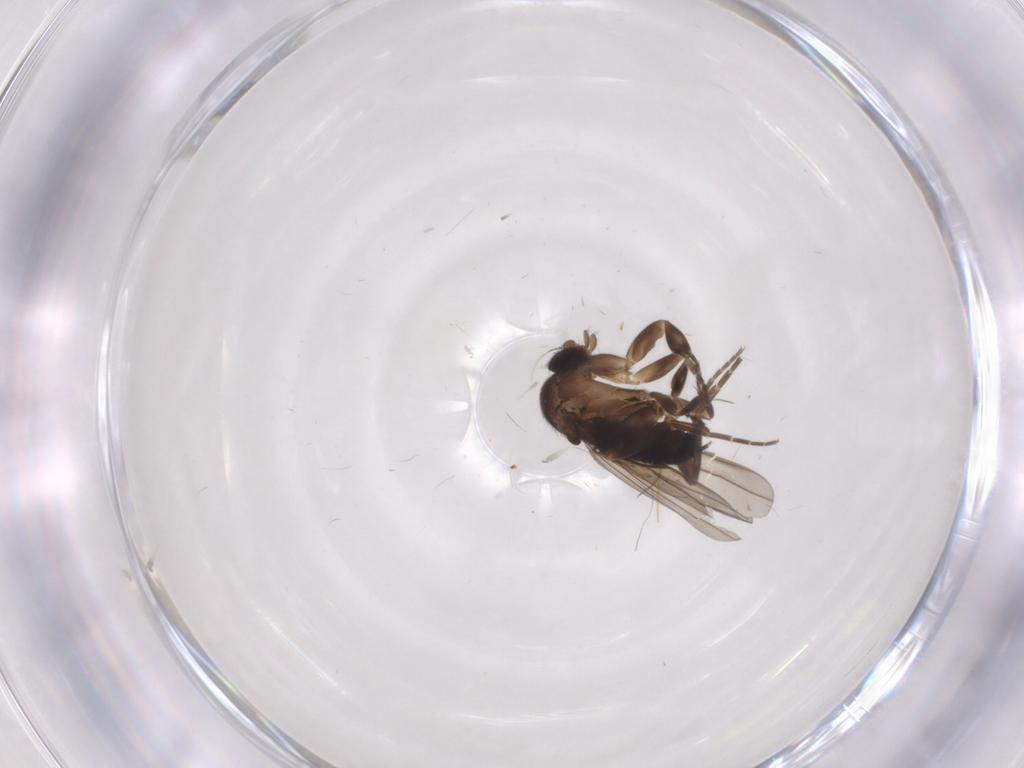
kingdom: Animalia
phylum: Arthropoda
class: Insecta
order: Diptera
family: Phoridae
